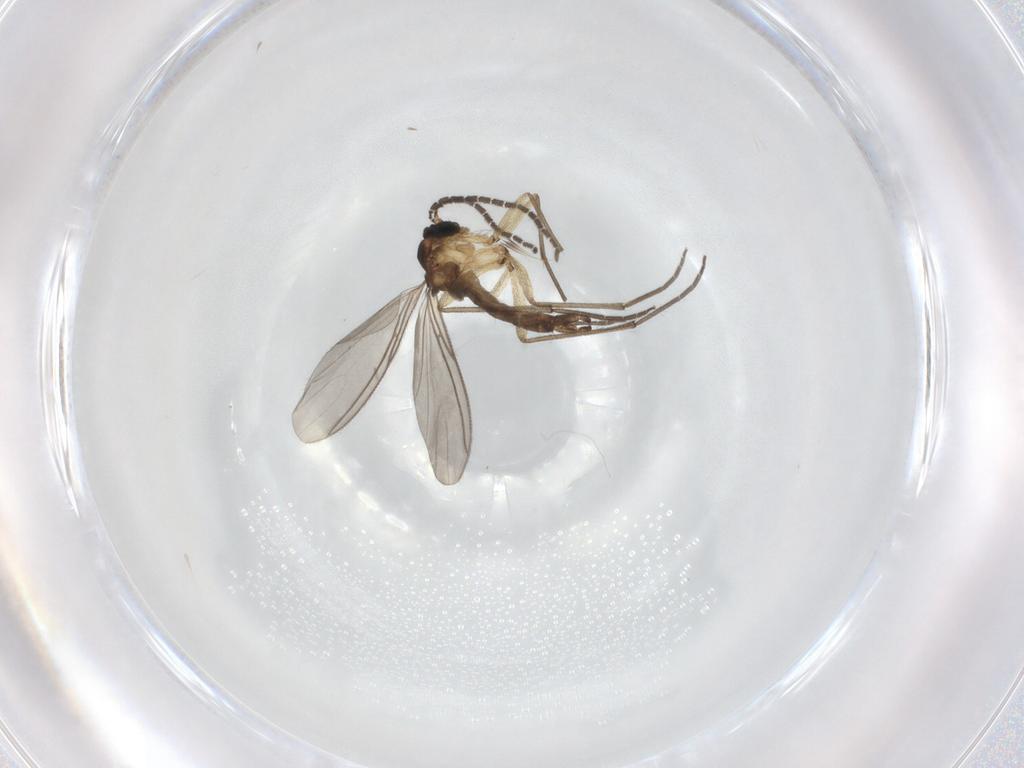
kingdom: Animalia
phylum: Arthropoda
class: Insecta
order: Diptera
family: Sciaridae
